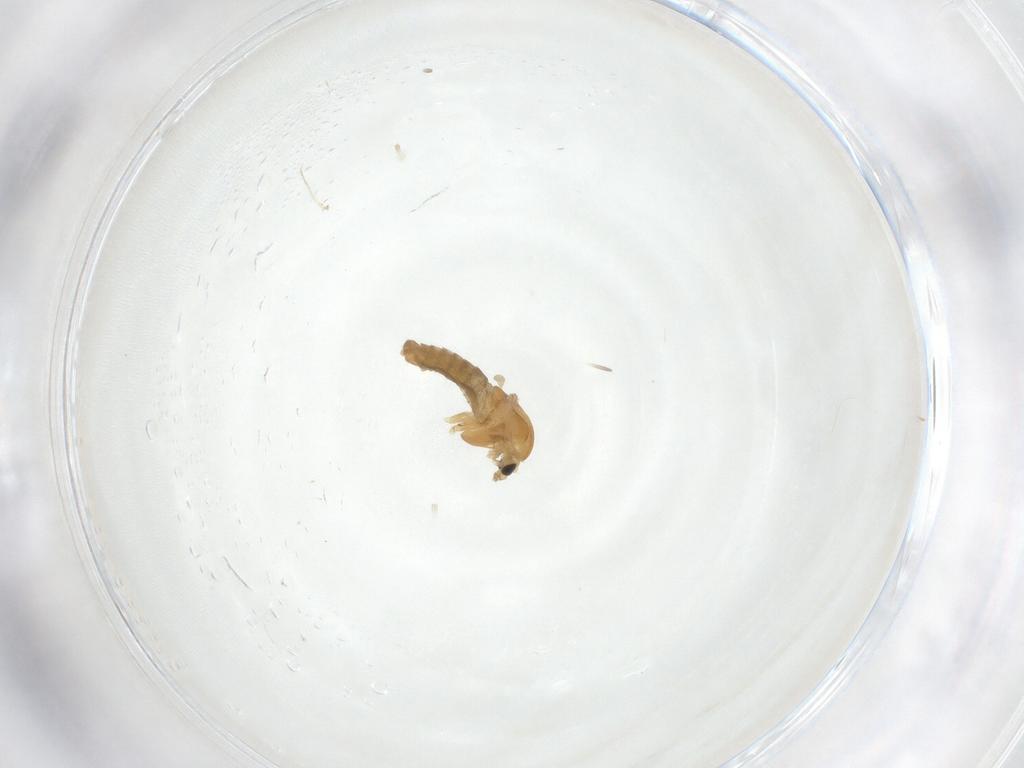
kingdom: Animalia
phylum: Arthropoda
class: Insecta
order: Diptera
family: Chironomidae
